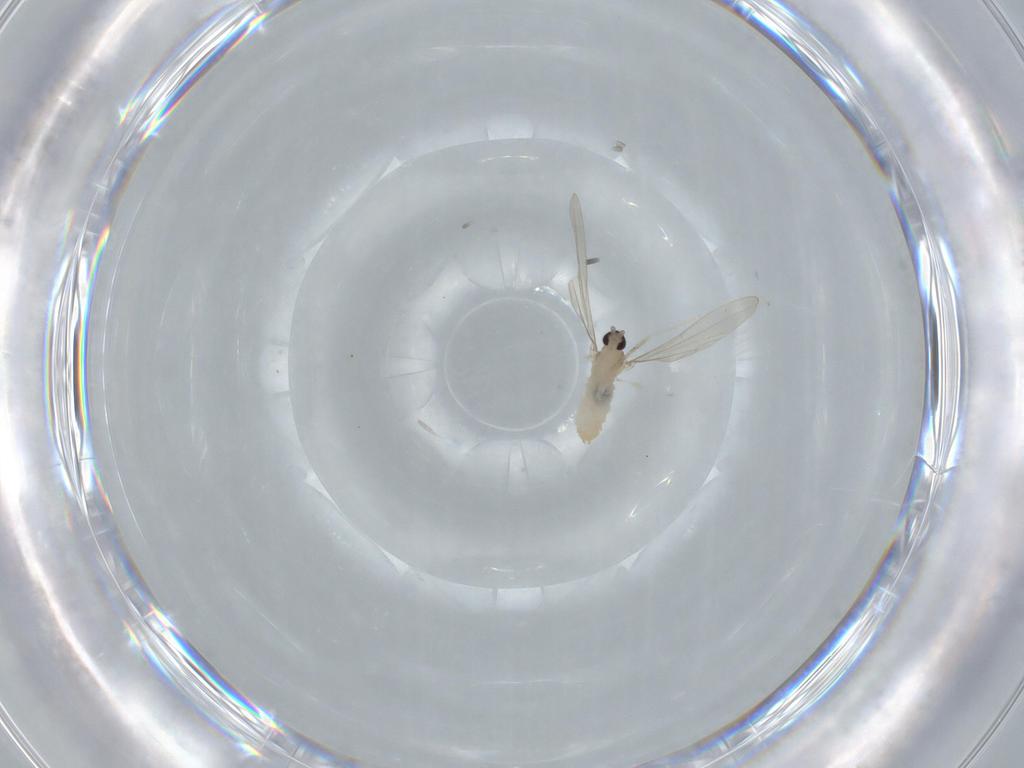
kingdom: Animalia
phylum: Arthropoda
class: Insecta
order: Diptera
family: Cecidomyiidae
